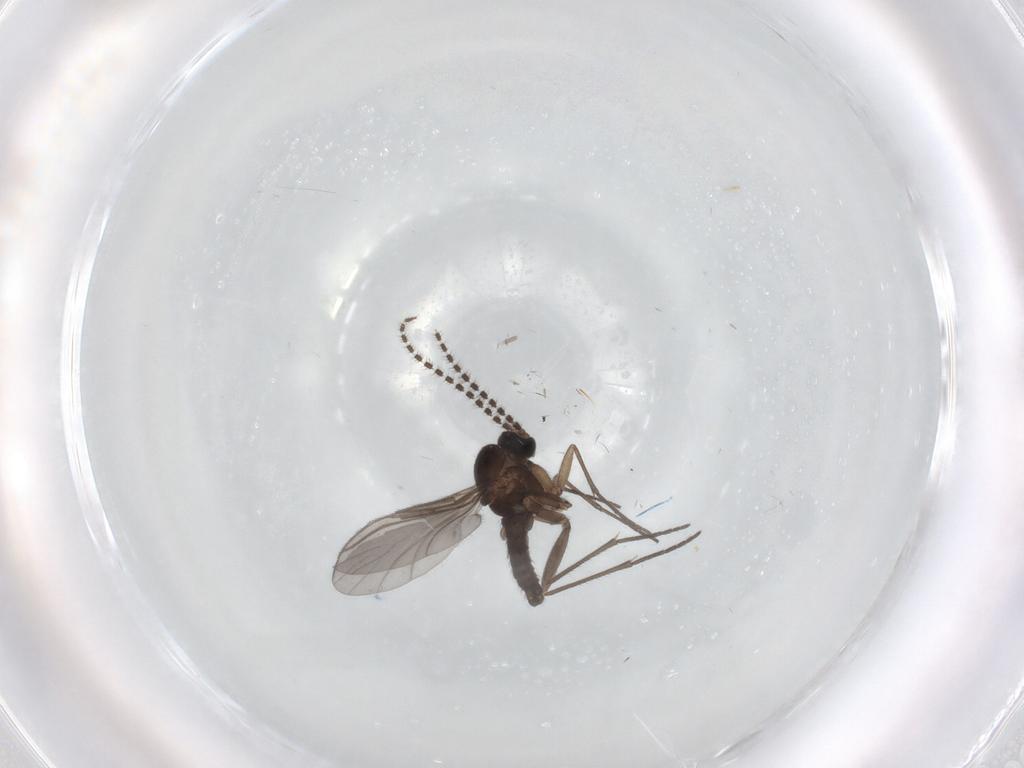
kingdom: Animalia
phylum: Arthropoda
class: Insecta
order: Diptera
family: Sciaridae
